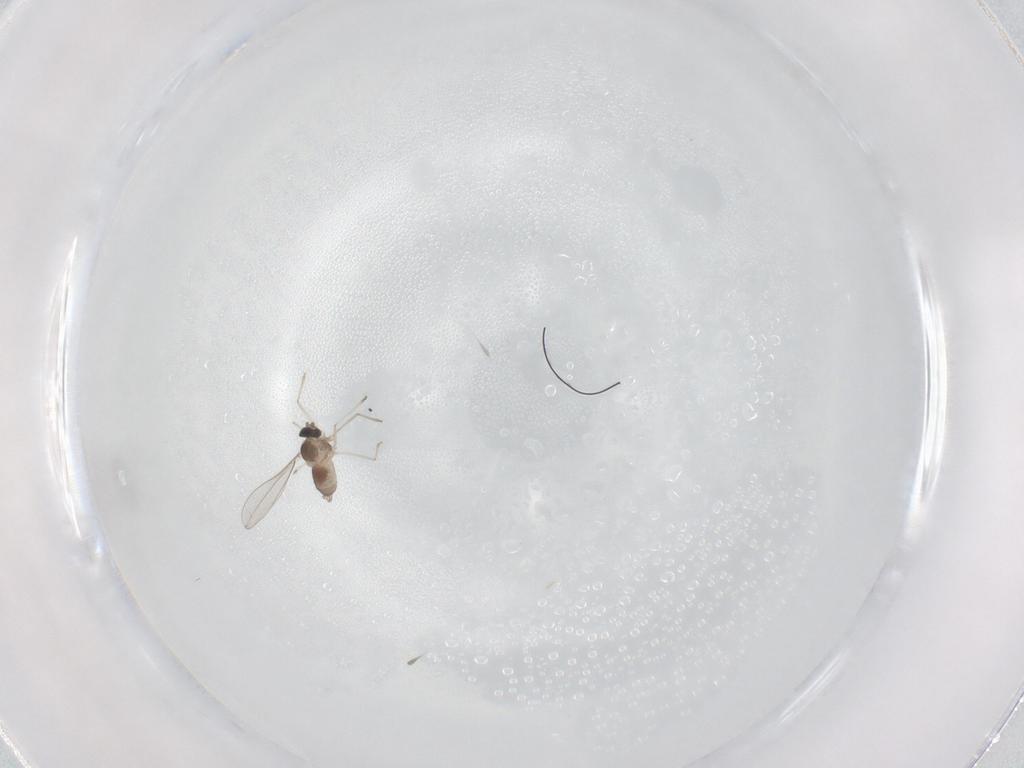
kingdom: Animalia
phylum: Arthropoda
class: Insecta
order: Diptera
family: Cecidomyiidae
